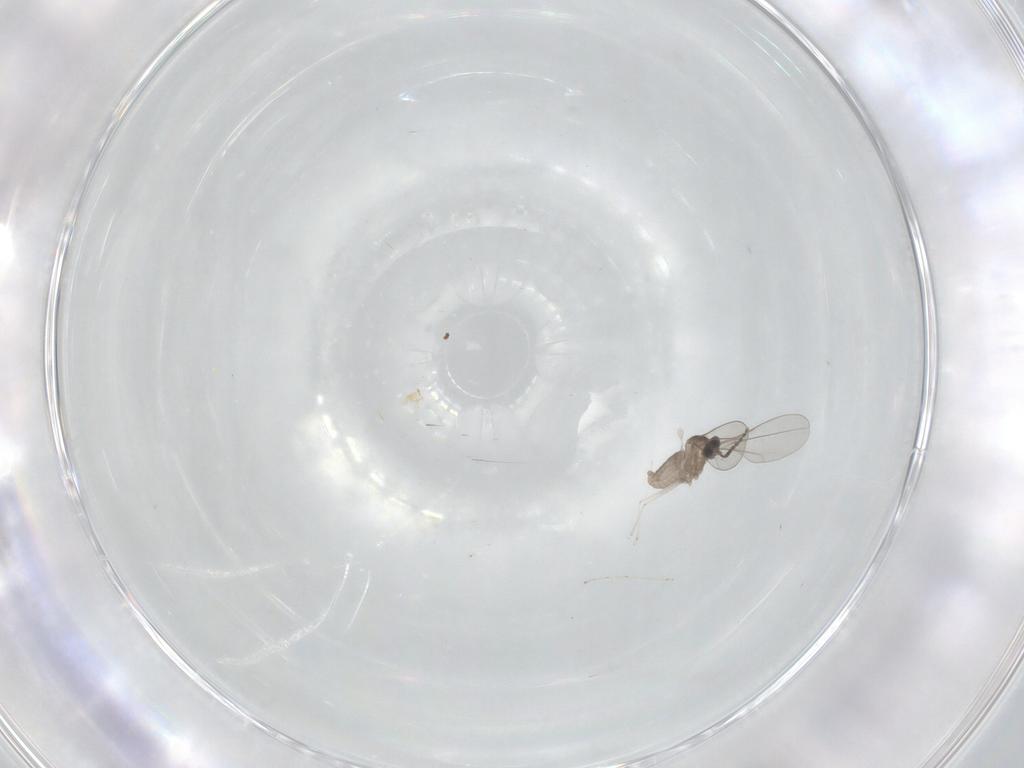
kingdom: Animalia
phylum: Arthropoda
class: Insecta
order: Diptera
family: Cecidomyiidae
